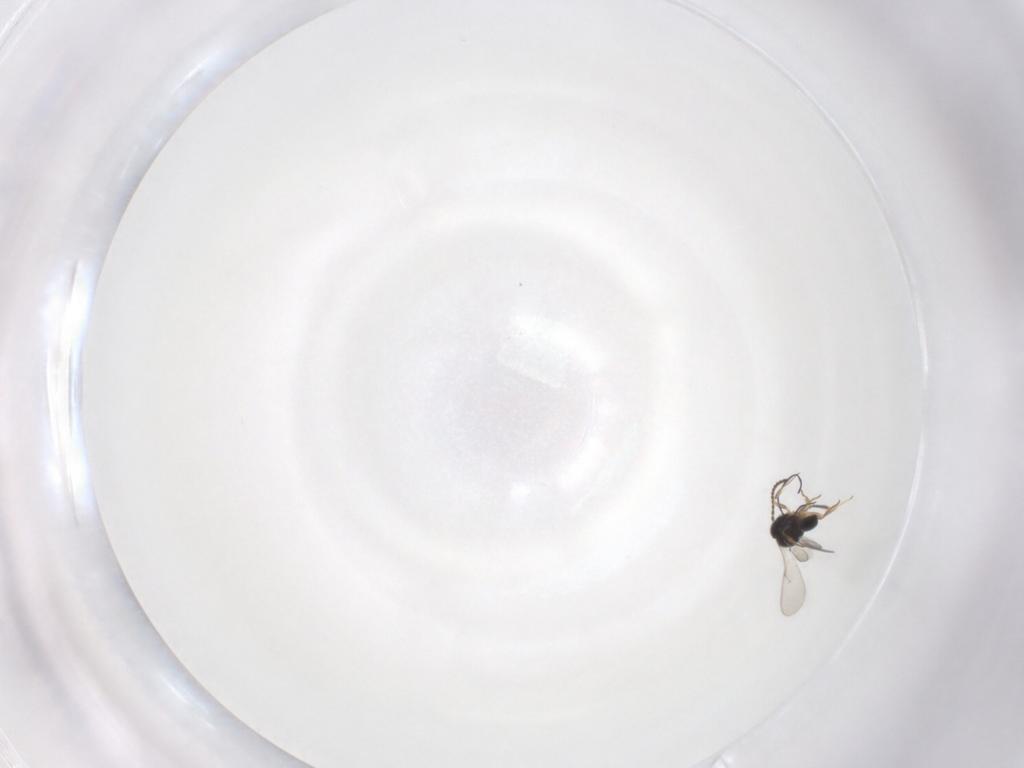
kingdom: Animalia
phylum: Arthropoda
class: Insecta
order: Hymenoptera
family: Scelionidae
